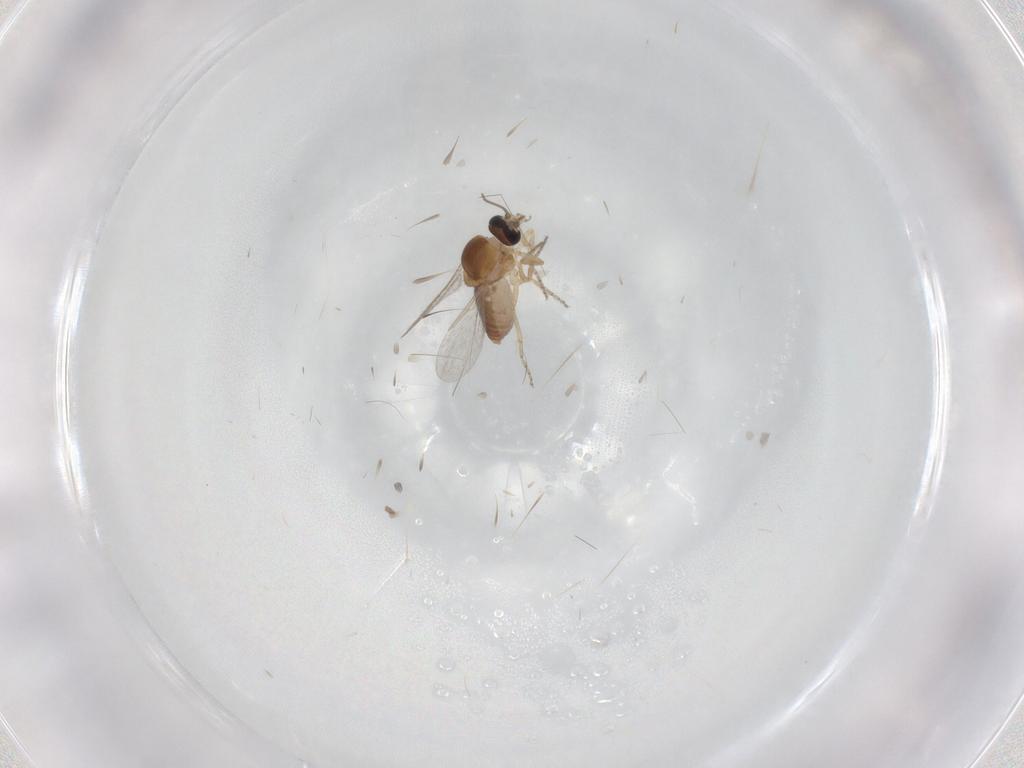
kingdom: Animalia
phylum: Arthropoda
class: Insecta
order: Diptera
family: Ceratopogonidae
